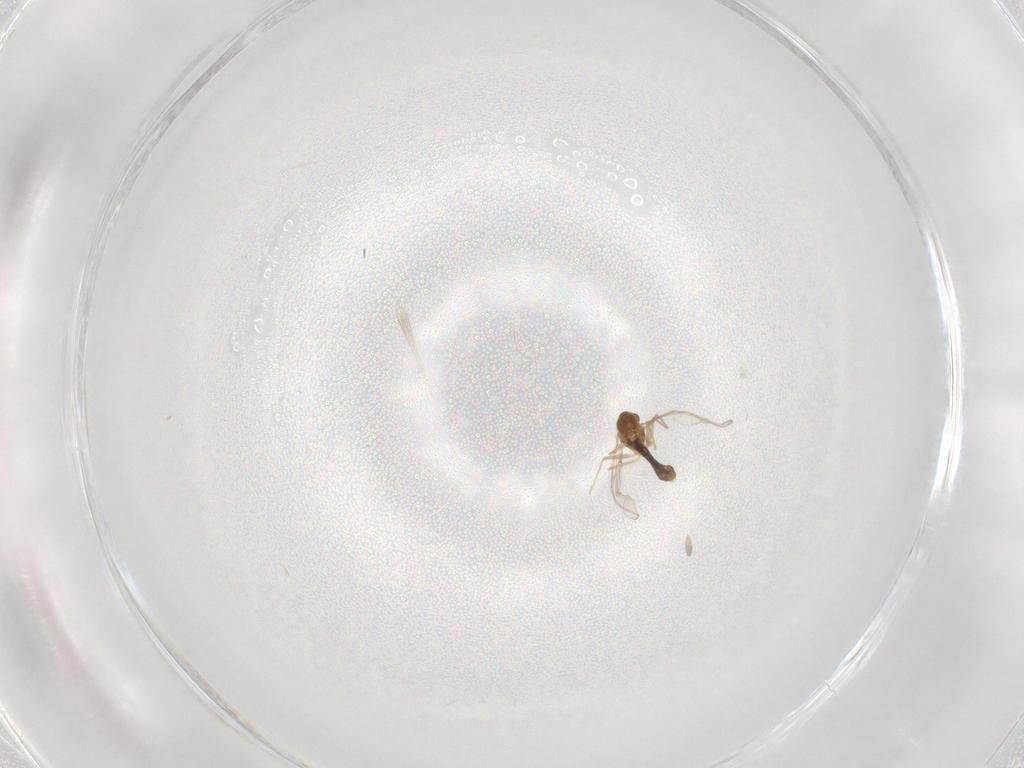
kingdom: Animalia
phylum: Arthropoda
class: Insecta
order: Diptera
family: Chironomidae
